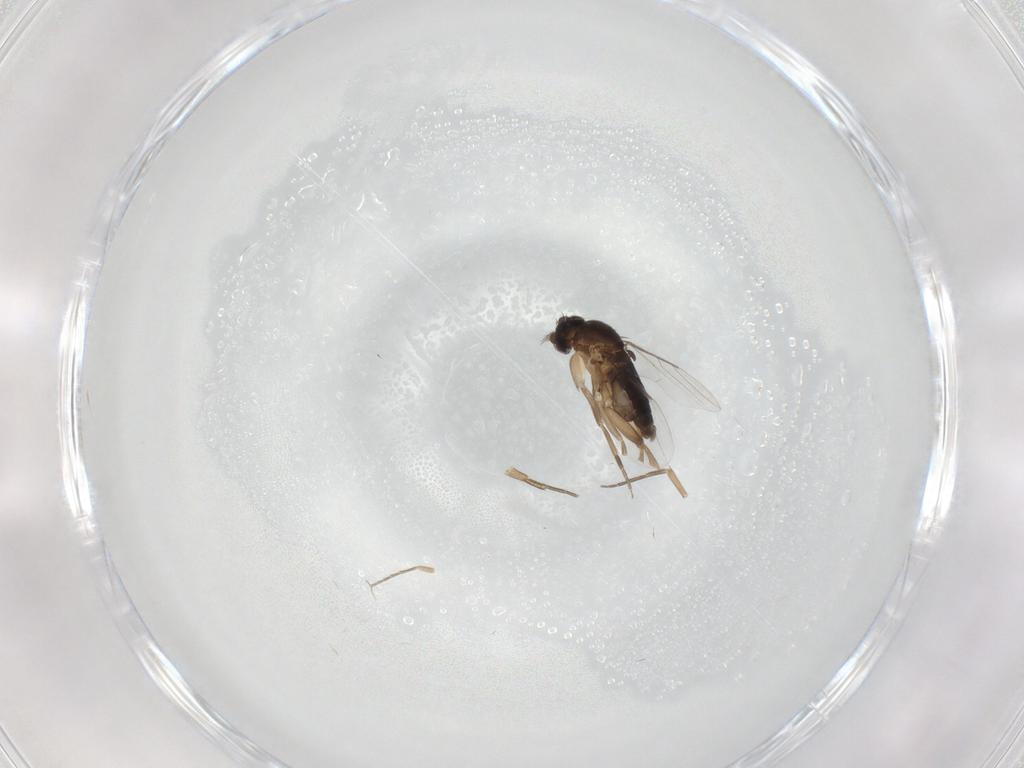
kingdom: Animalia
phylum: Arthropoda
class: Insecta
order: Diptera
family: Phoridae
